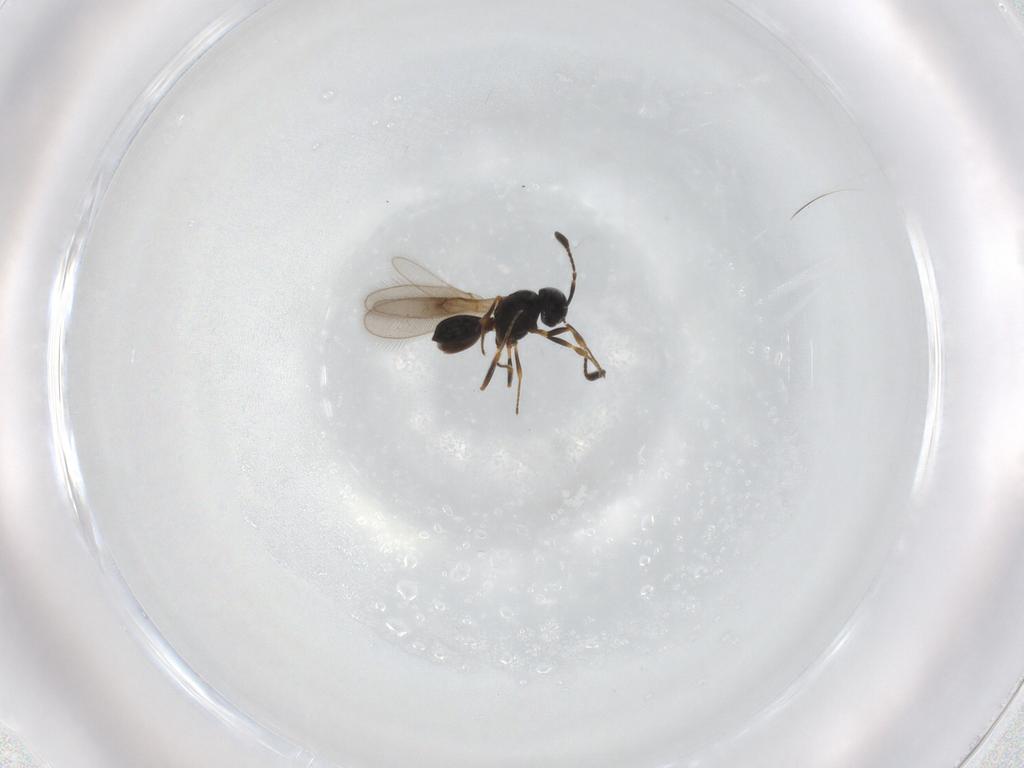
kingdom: Animalia
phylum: Arthropoda
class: Insecta
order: Hymenoptera
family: Scelionidae
